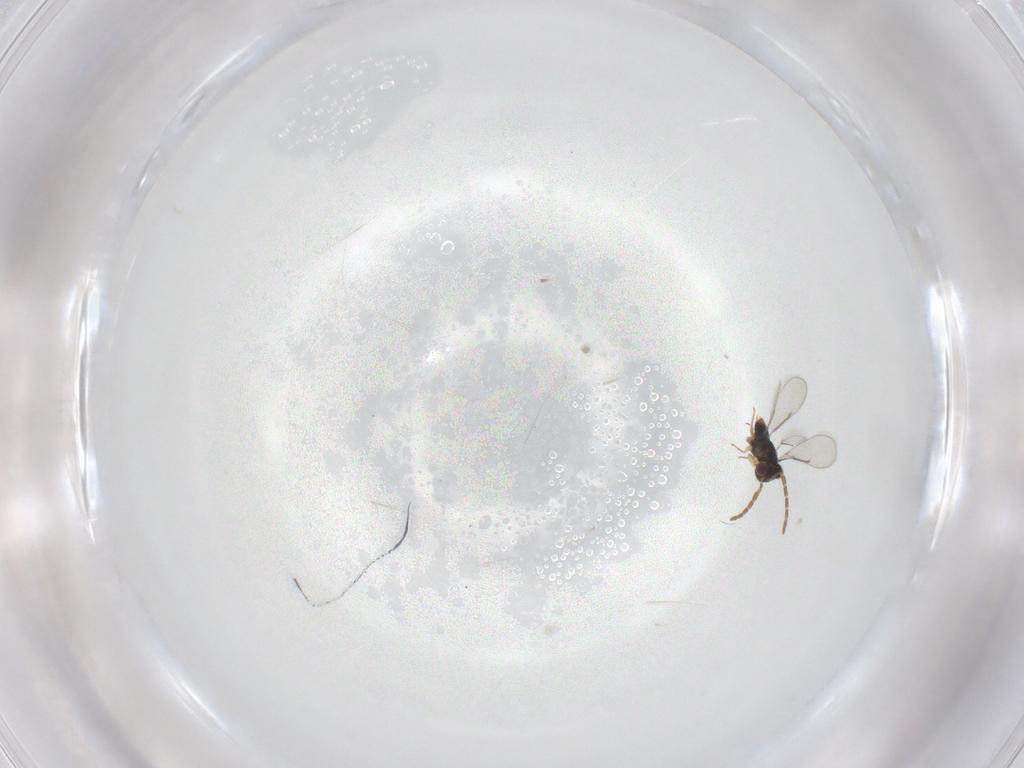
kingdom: Animalia
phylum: Arthropoda
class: Insecta
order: Hymenoptera
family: Aphelinidae
